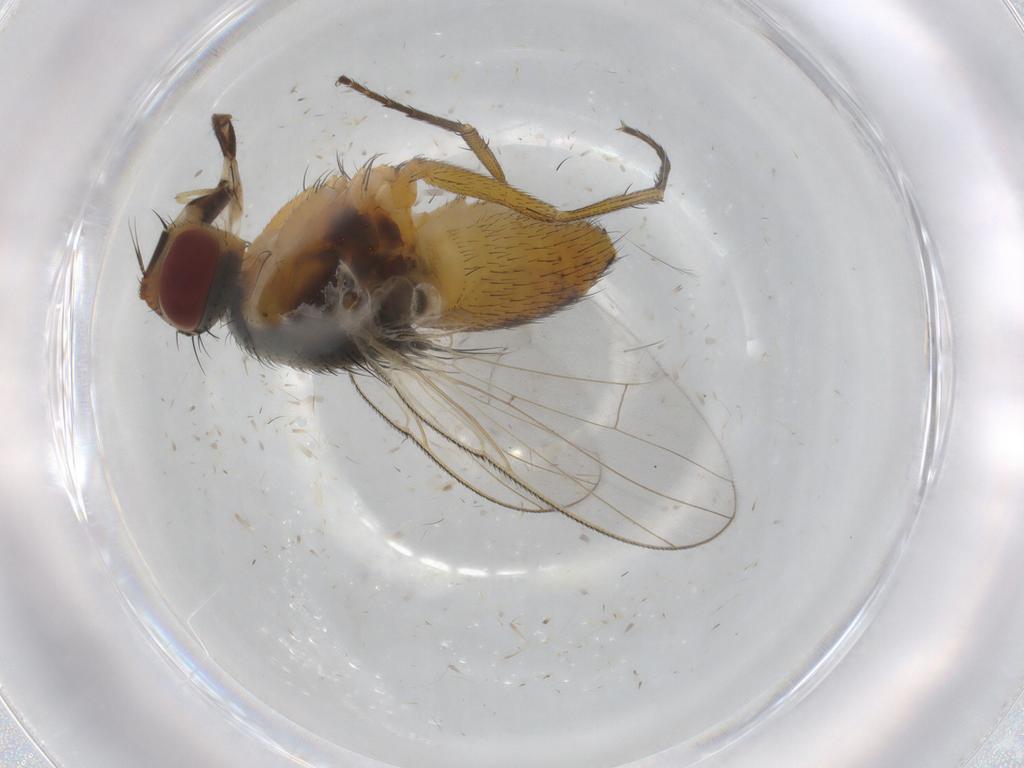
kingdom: Animalia
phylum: Arthropoda
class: Insecta
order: Diptera
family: Muscidae
